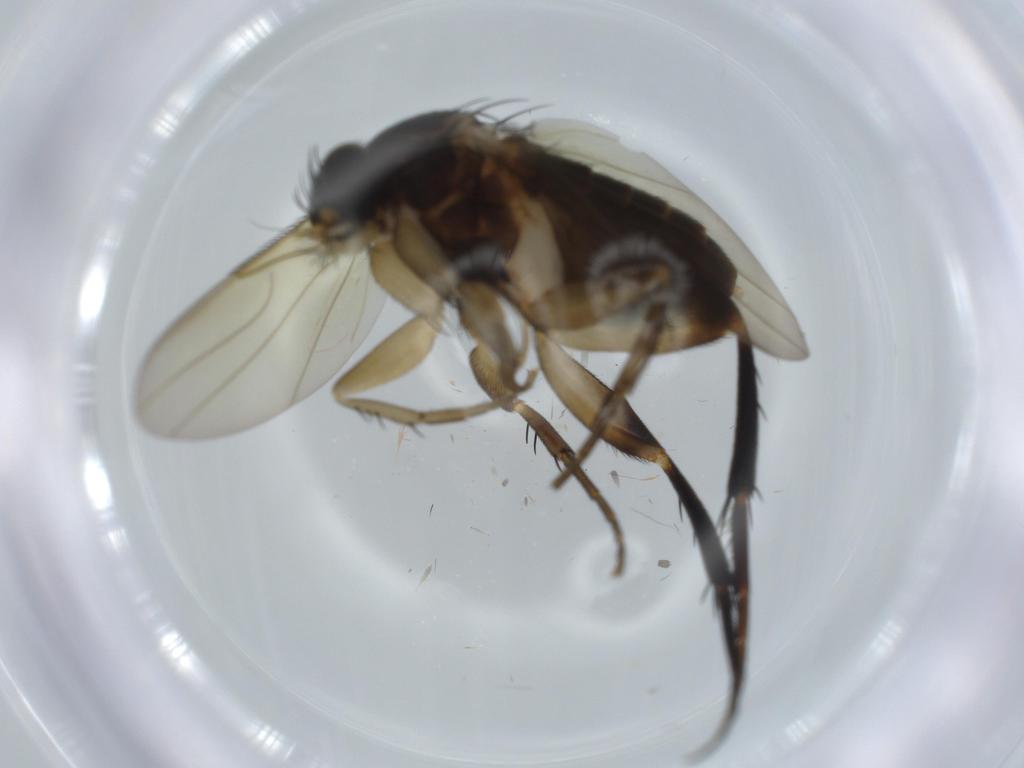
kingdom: Animalia
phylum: Arthropoda
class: Insecta
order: Diptera
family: Phoridae
